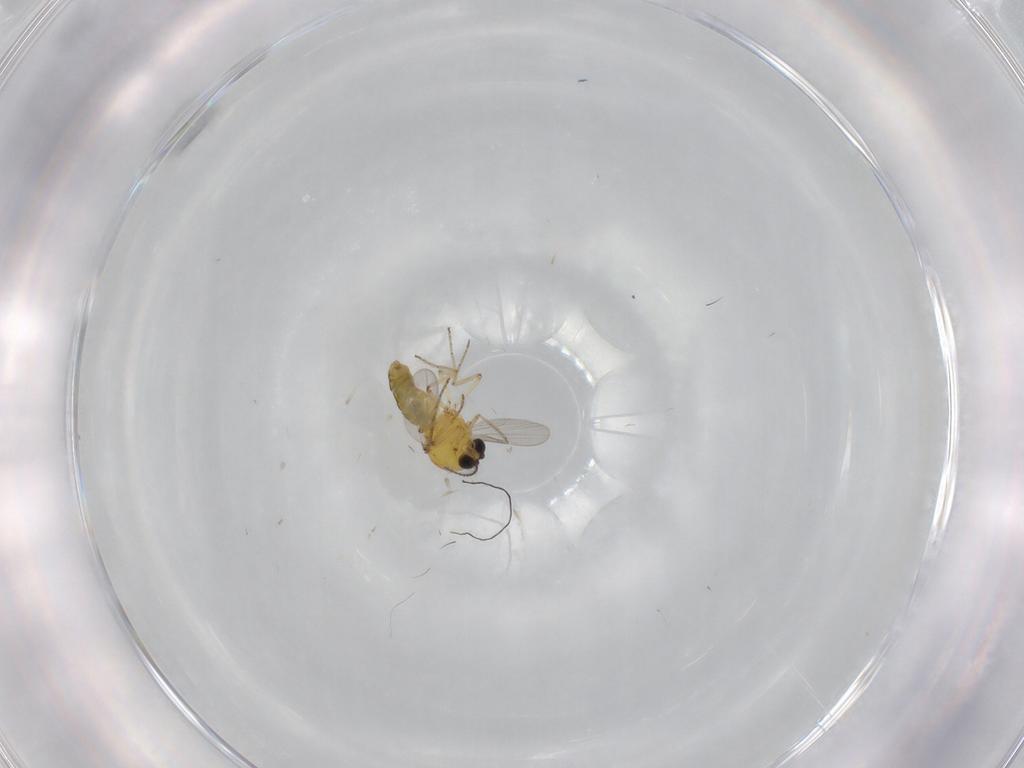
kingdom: Animalia
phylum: Arthropoda
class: Insecta
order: Diptera
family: Ceratopogonidae
